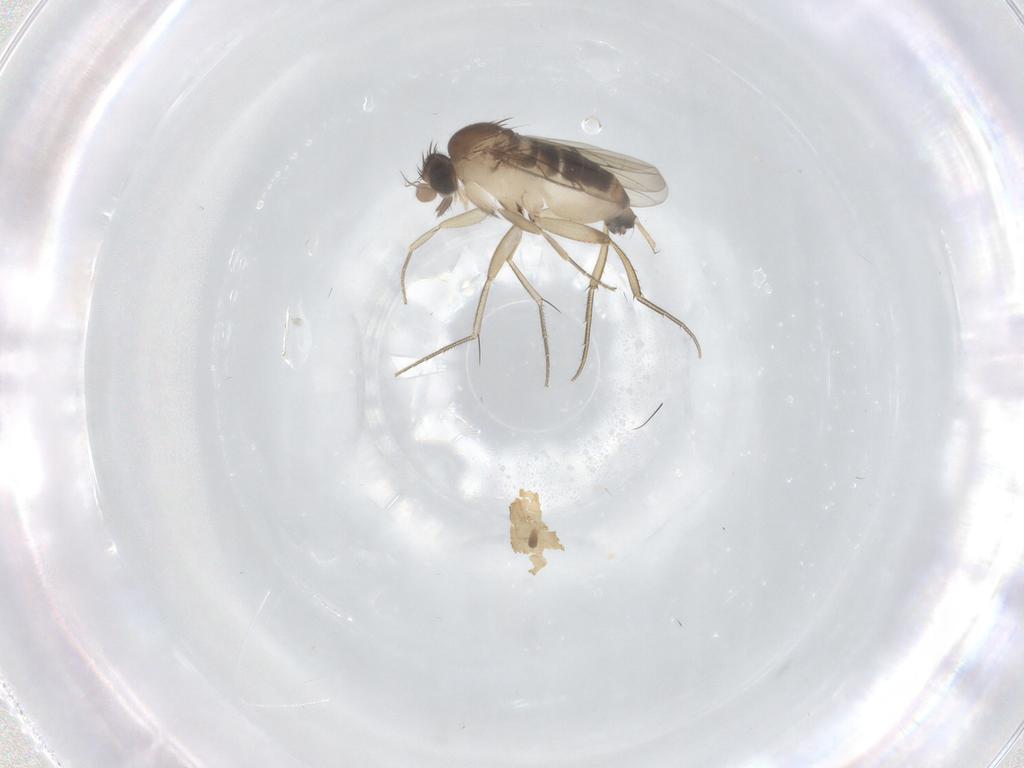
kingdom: Animalia
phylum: Arthropoda
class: Insecta
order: Diptera
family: Phoridae
